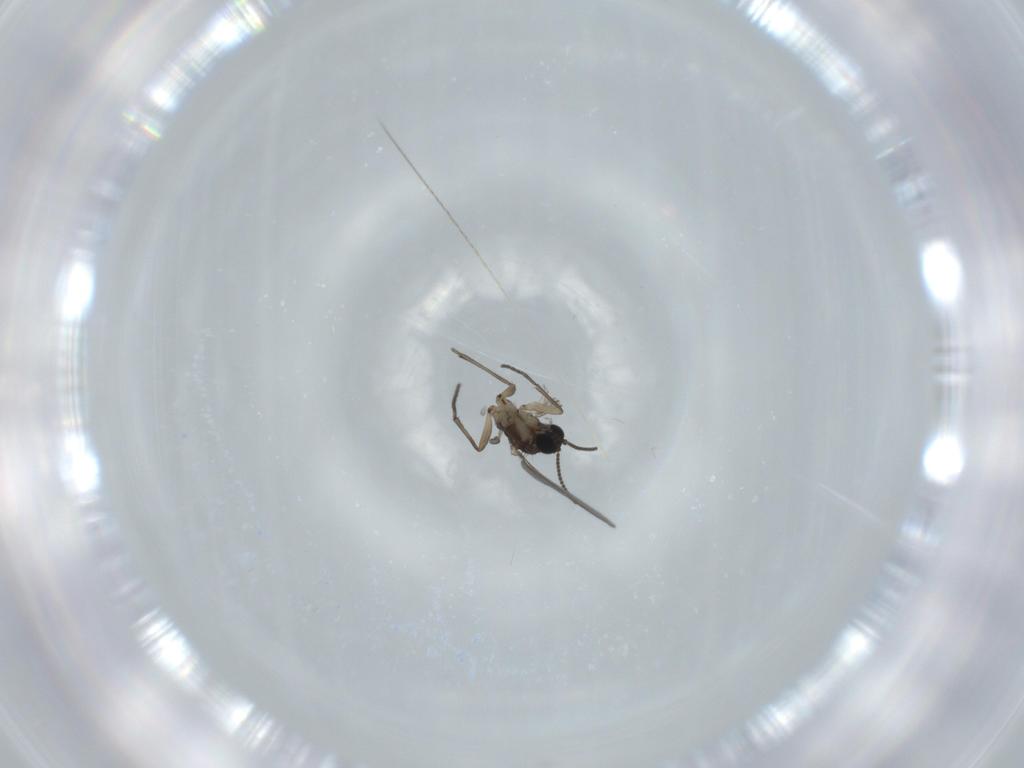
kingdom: Animalia
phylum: Arthropoda
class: Insecta
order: Diptera
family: Sciaridae
